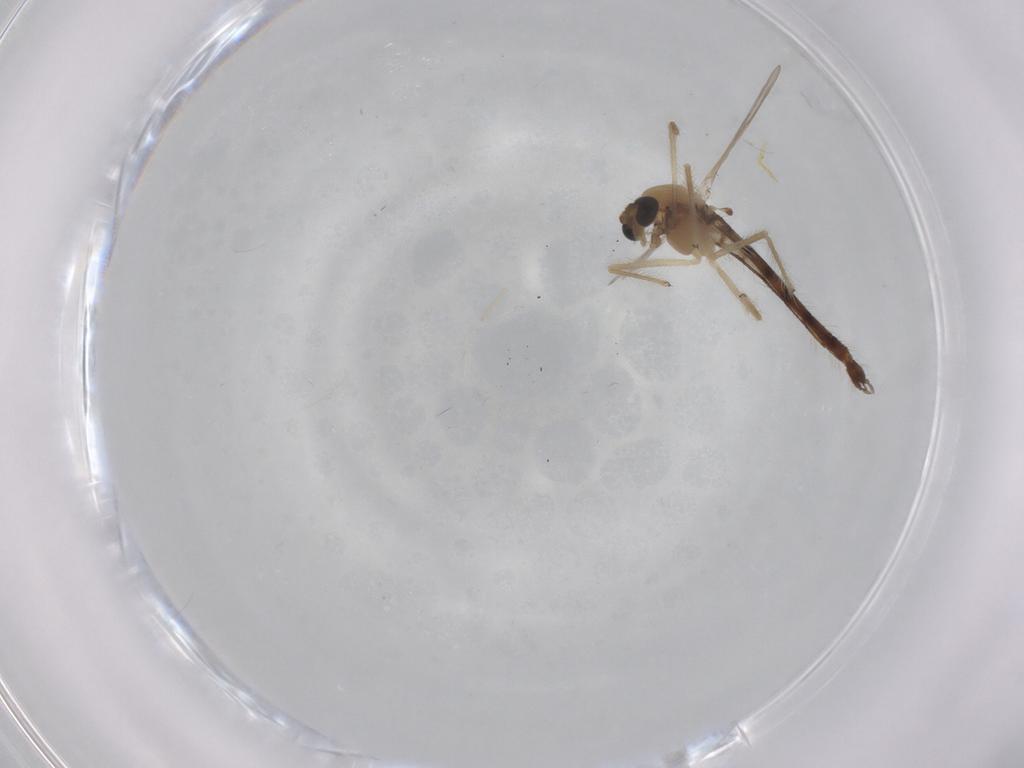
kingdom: Animalia
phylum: Arthropoda
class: Insecta
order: Diptera
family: Chironomidae
